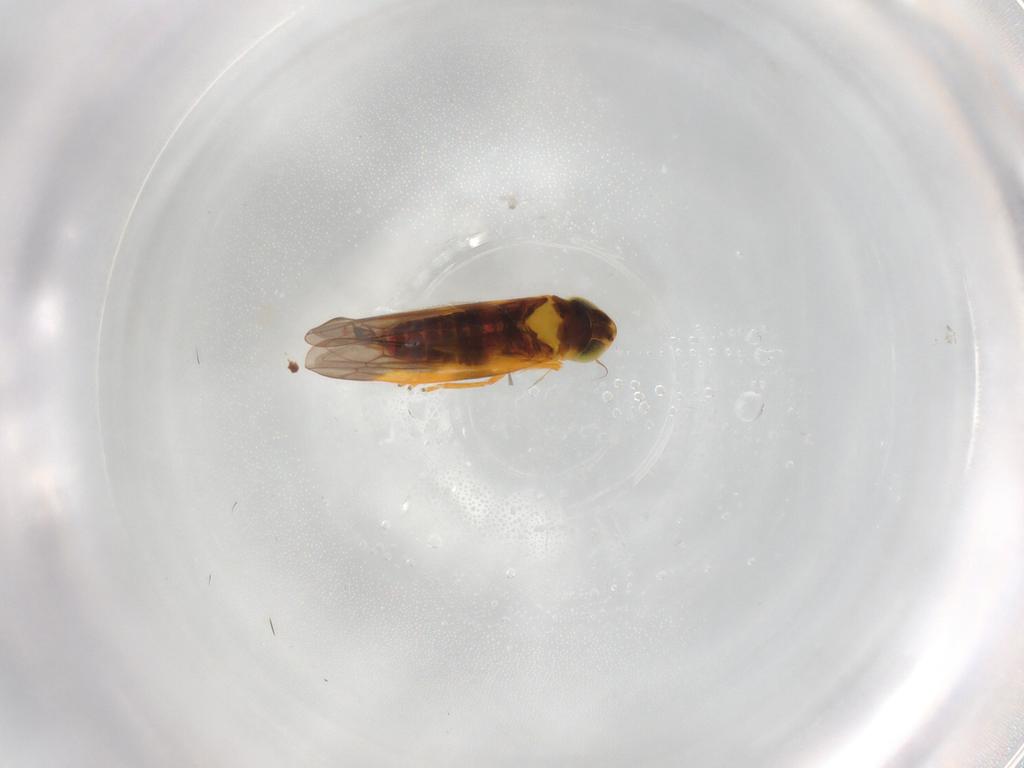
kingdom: Animalia
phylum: Arthropoda
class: Insecta
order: Hemiptera
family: Cicadellidae
